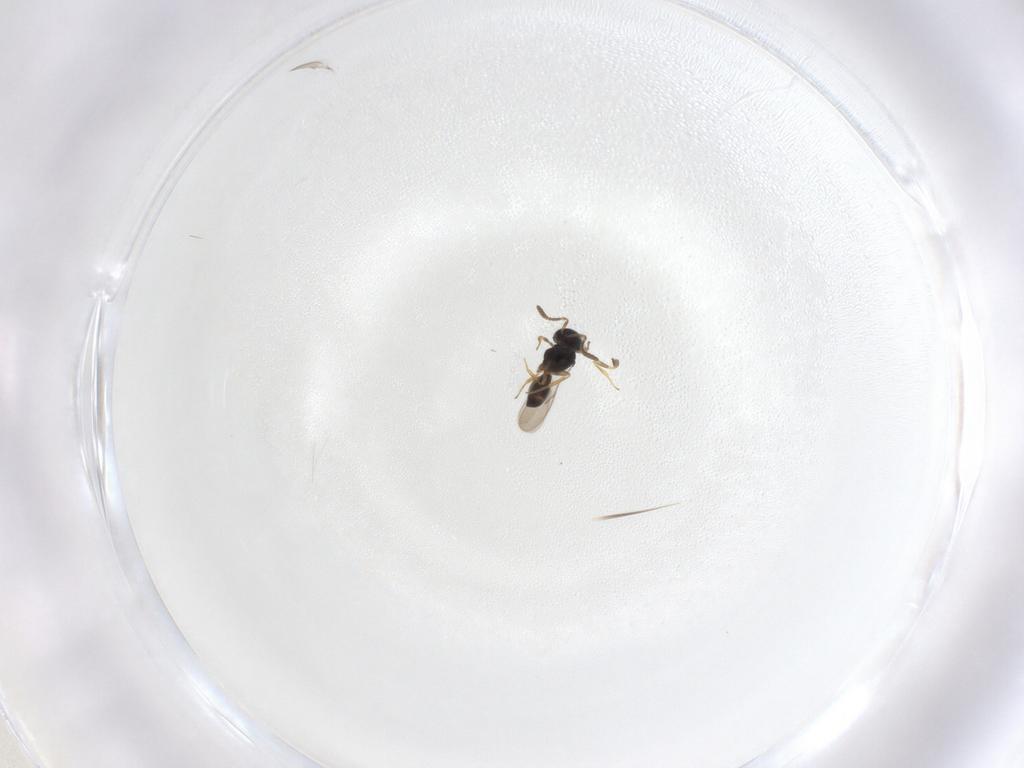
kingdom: Animalia
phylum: Arthropoda
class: Insecta
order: Hymenoptera
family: Scelionidae
